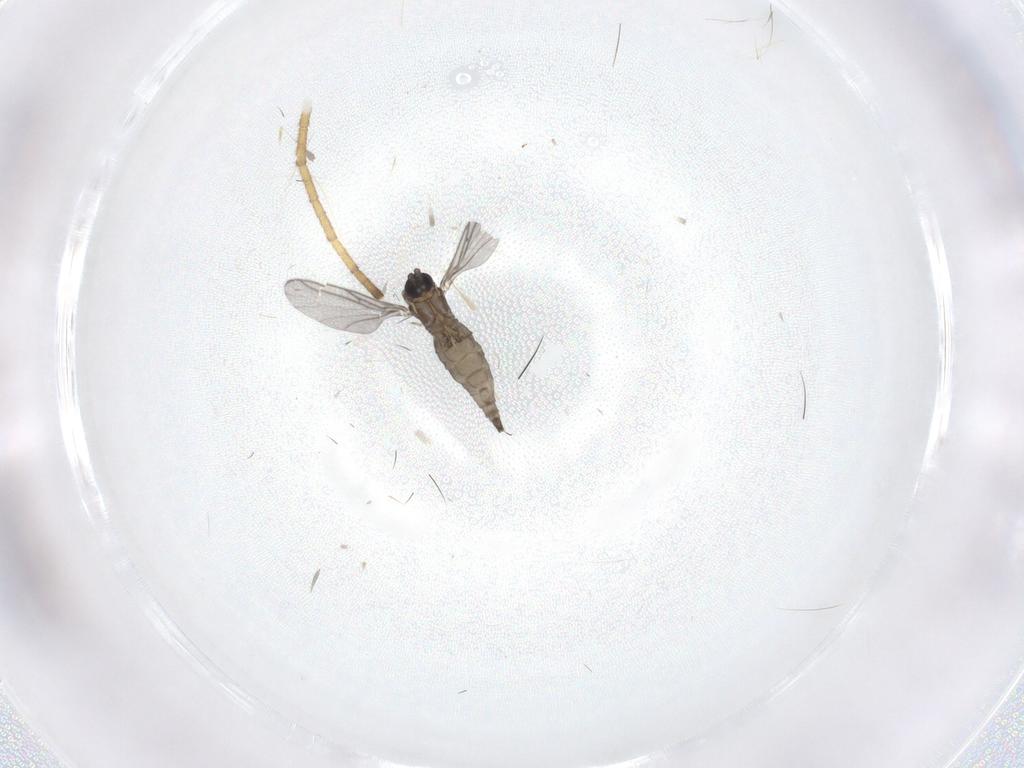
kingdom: Animalia
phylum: Arthropoda
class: Insecta
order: Diptera
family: Sciaridae
